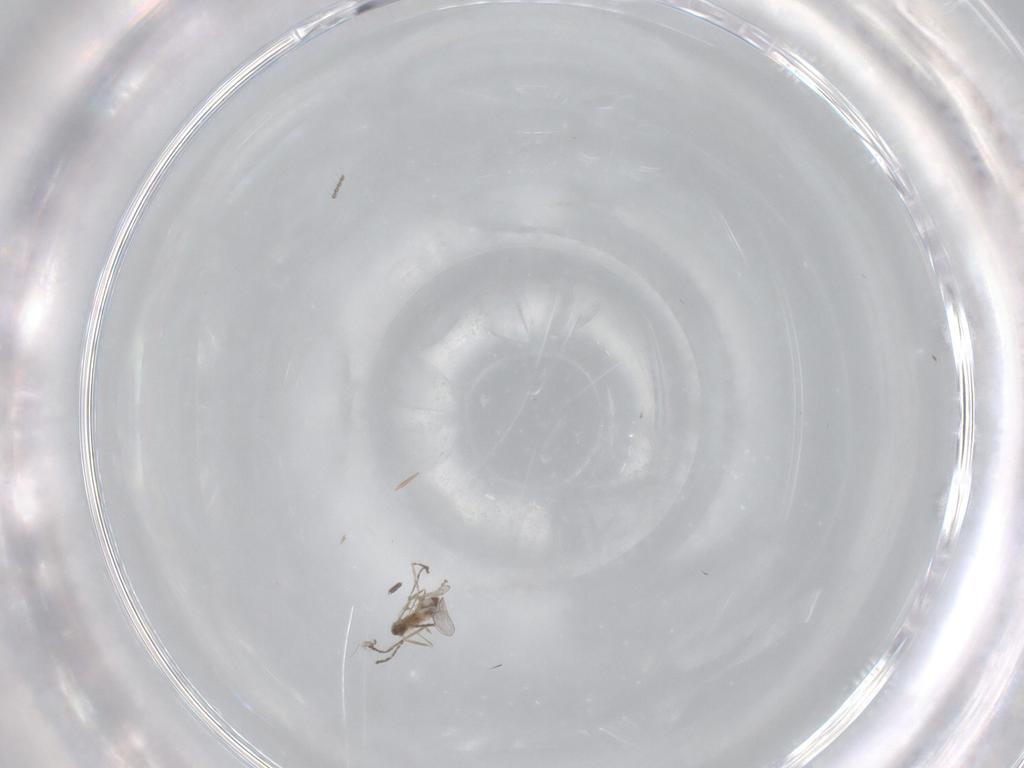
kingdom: Animalia
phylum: Arthropoda
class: Insecta
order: Diptera
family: Cecidomyiidae
